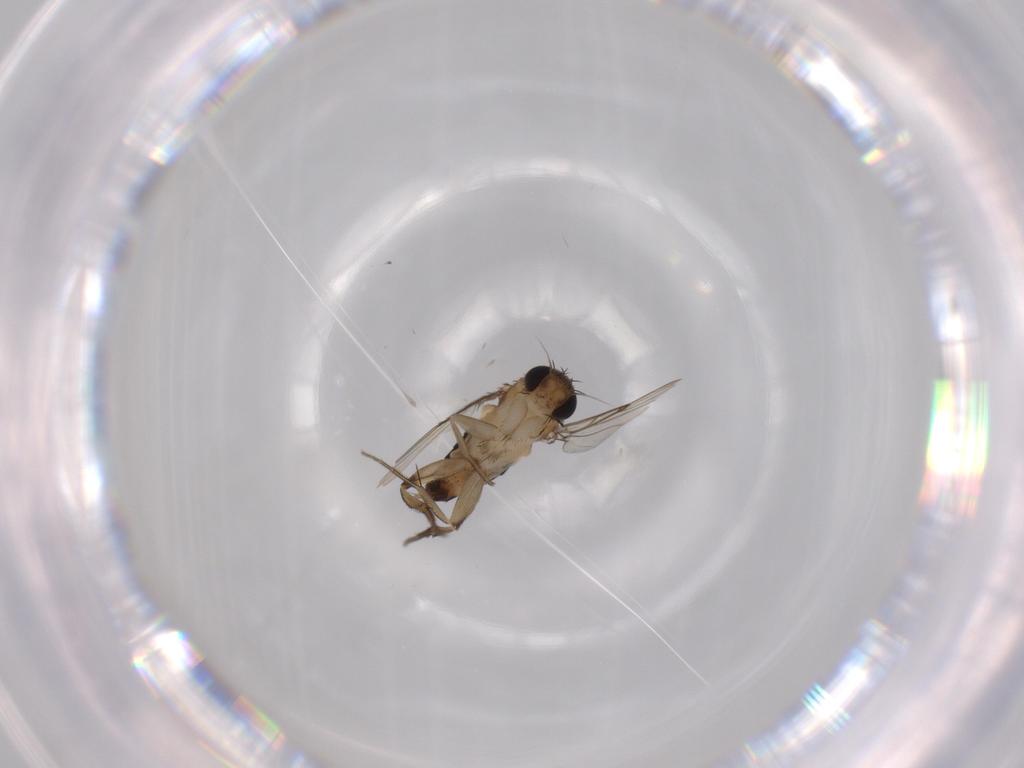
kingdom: Animalia
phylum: Arthropoda
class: Insecta
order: Diptera
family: Phoridae
